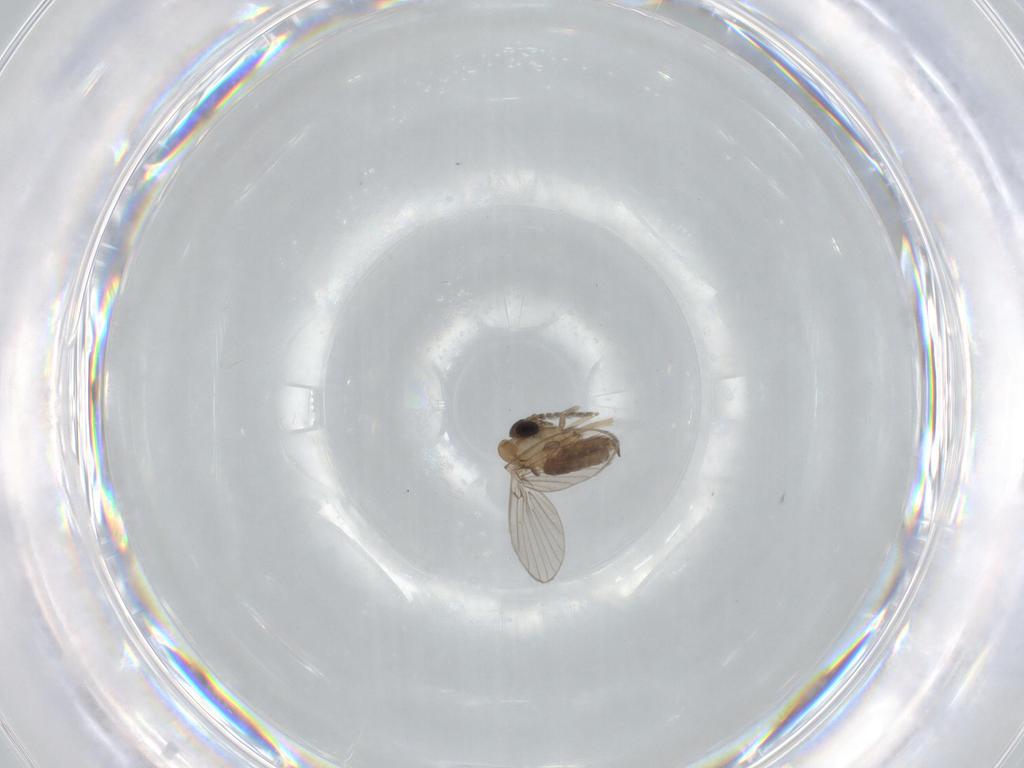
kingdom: Animalia
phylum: Arthropoda
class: Insecta
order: Diptera
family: Psychodidae
